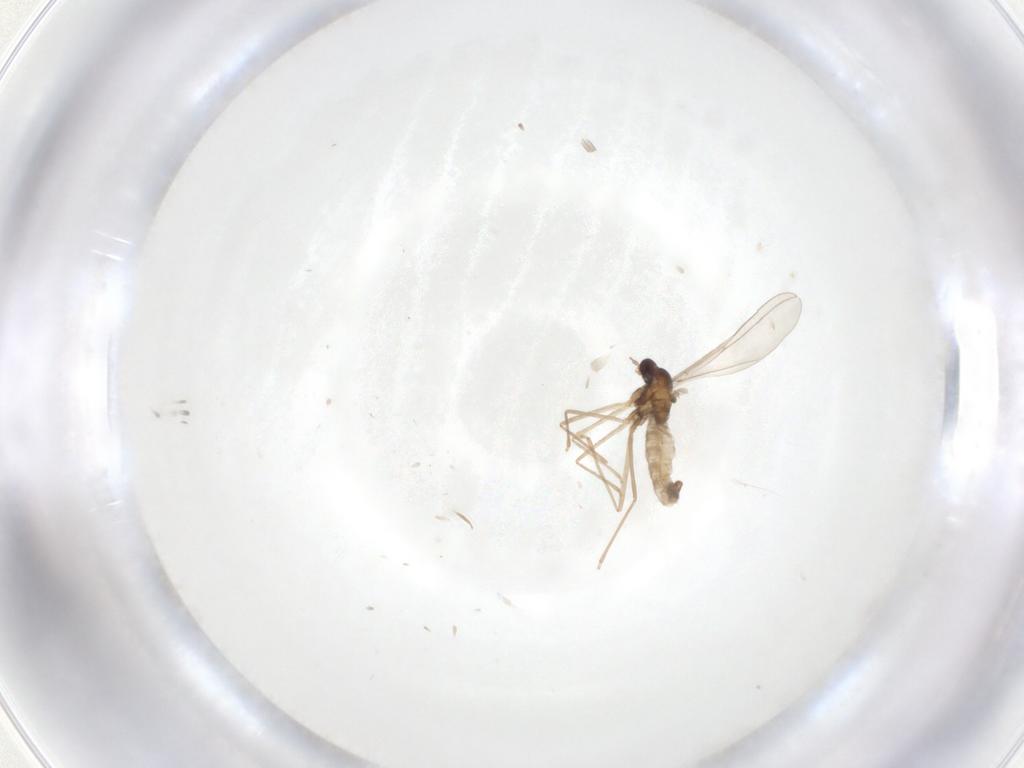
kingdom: Animalia
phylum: Arthropoda
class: Insecta
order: Diptera
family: Cecidomyiidae
